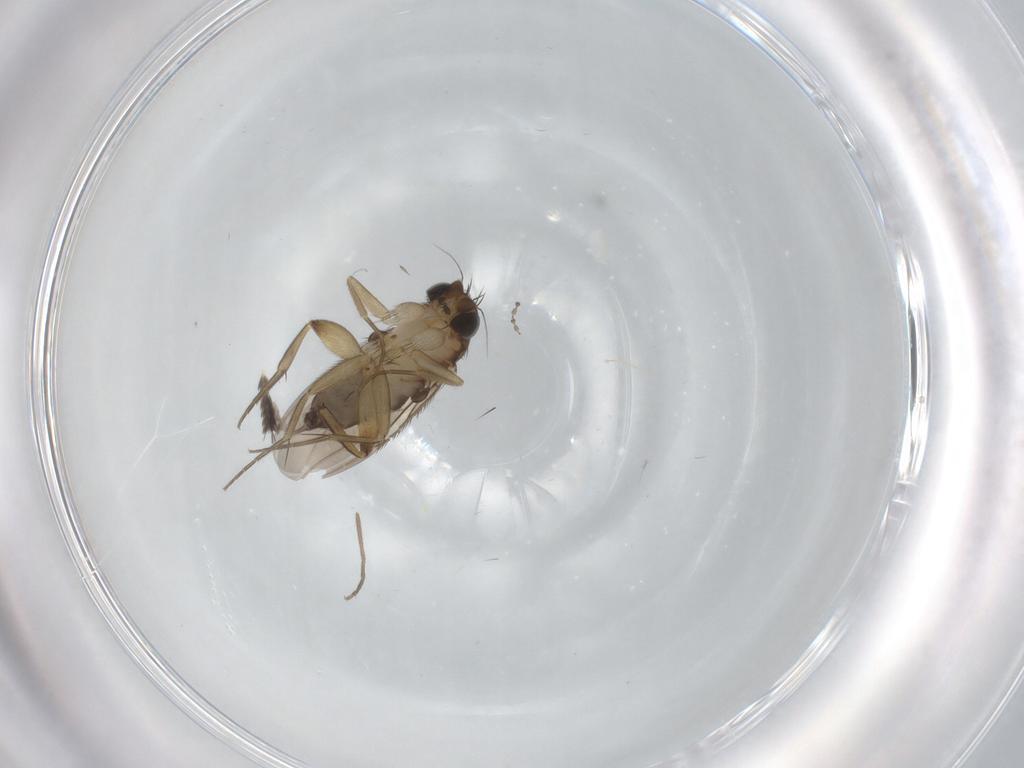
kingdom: Animalia
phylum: Arthropoda
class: Insecta
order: Diptera
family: Phoridae
